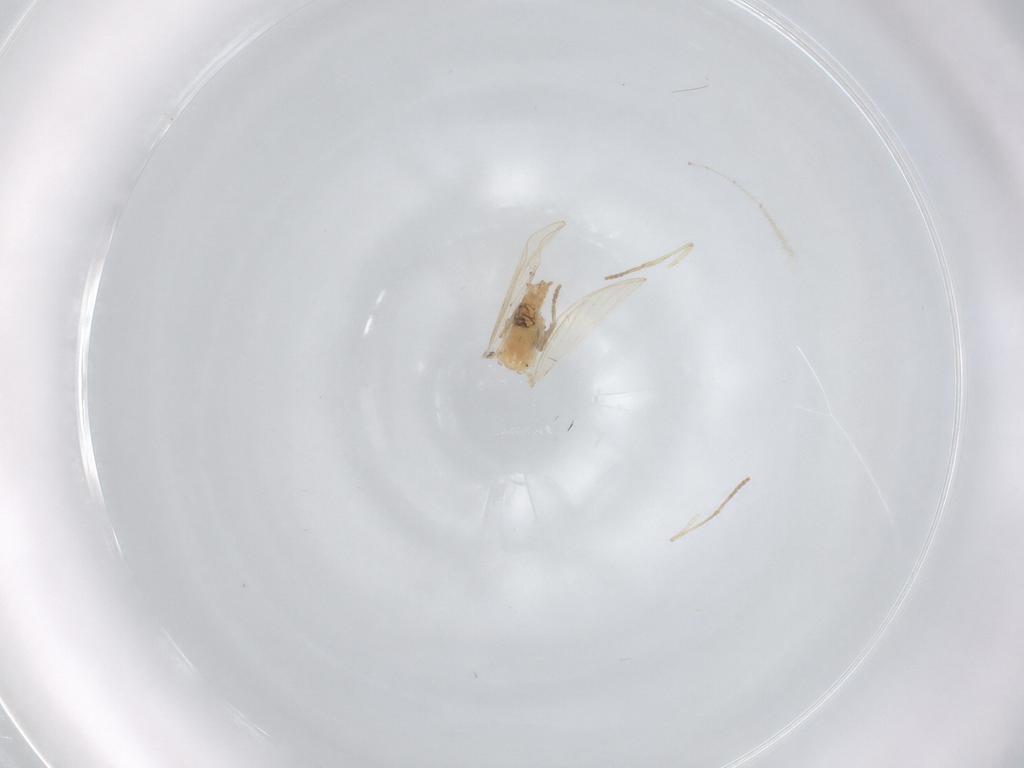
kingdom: Animalia
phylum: Arthropoda
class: Insecta
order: Diptera
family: Psychodidae
